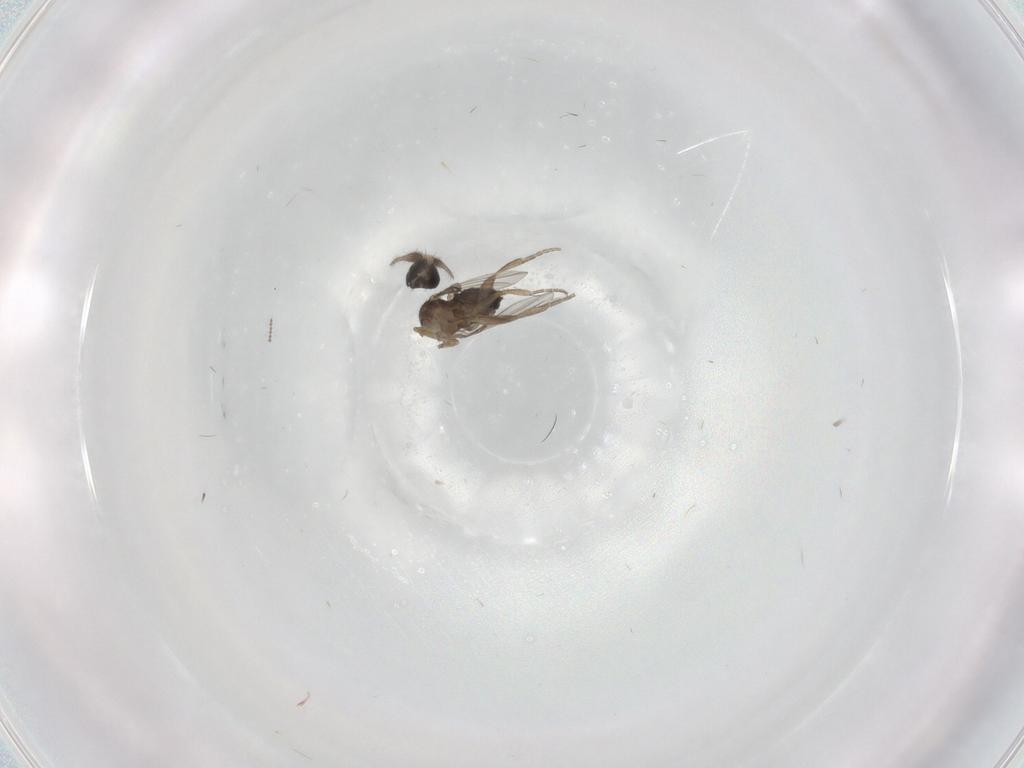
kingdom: Animalia
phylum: Arthropoda
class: Insecta
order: Diptera
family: Phoridae
